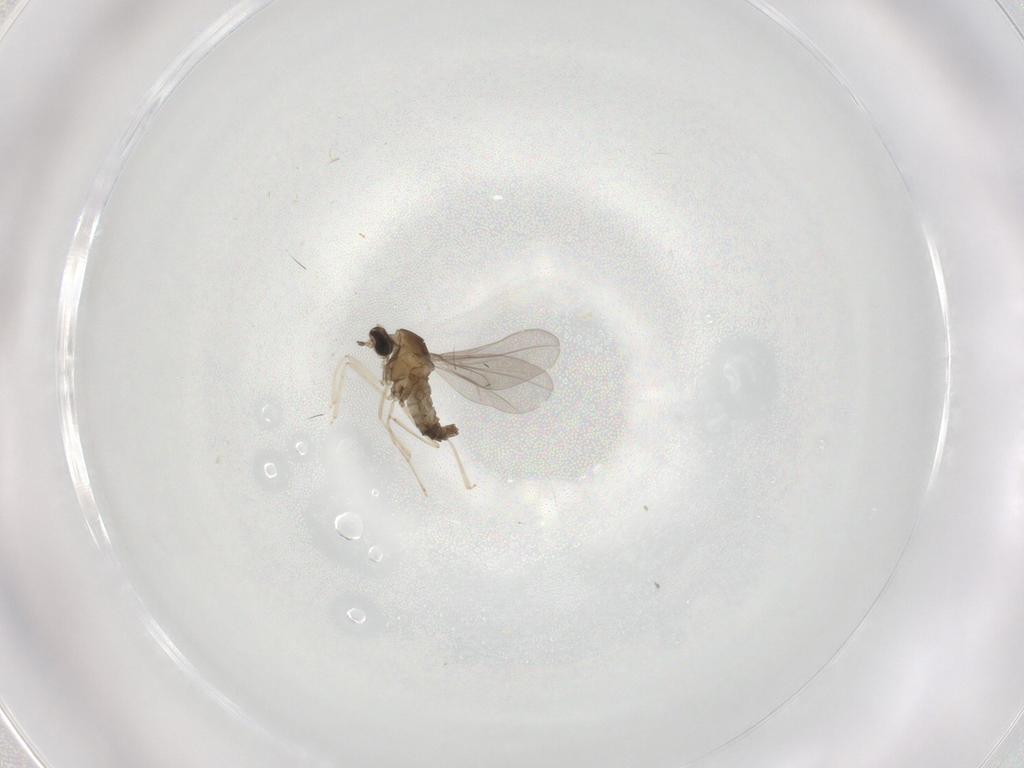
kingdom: Animalia
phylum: Arthropoda
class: Insecta
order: Diptera
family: Cecidomyiidae
